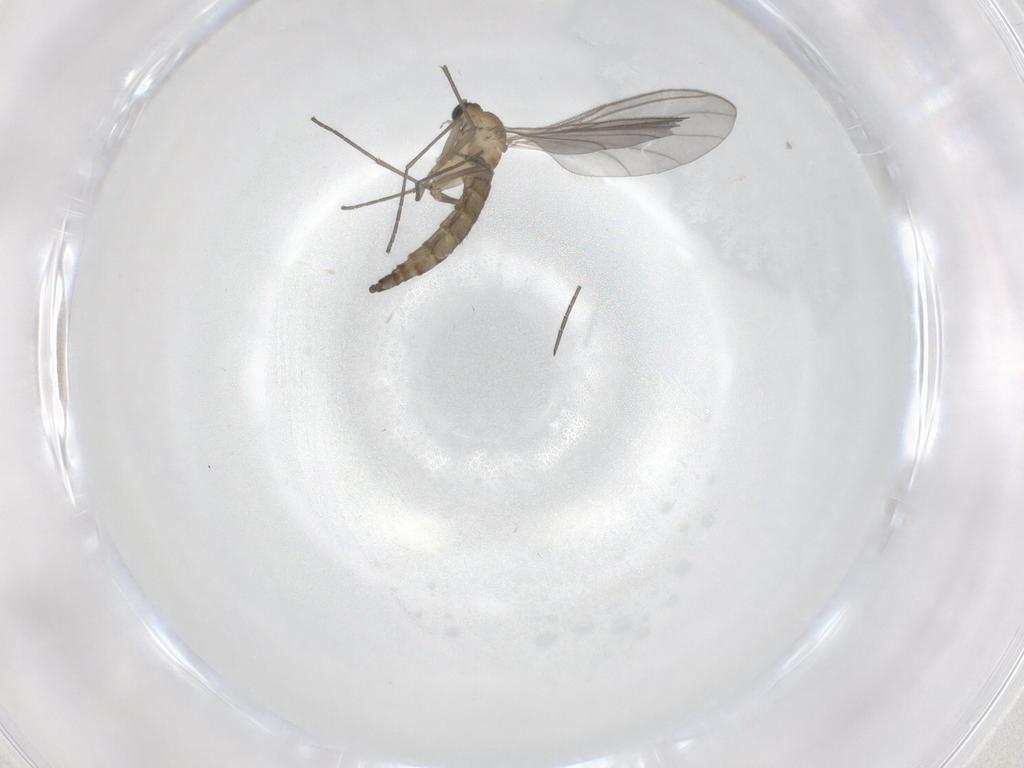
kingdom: Animalia
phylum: Arthropoda
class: Insecta
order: Diptera
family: Sciaridae
